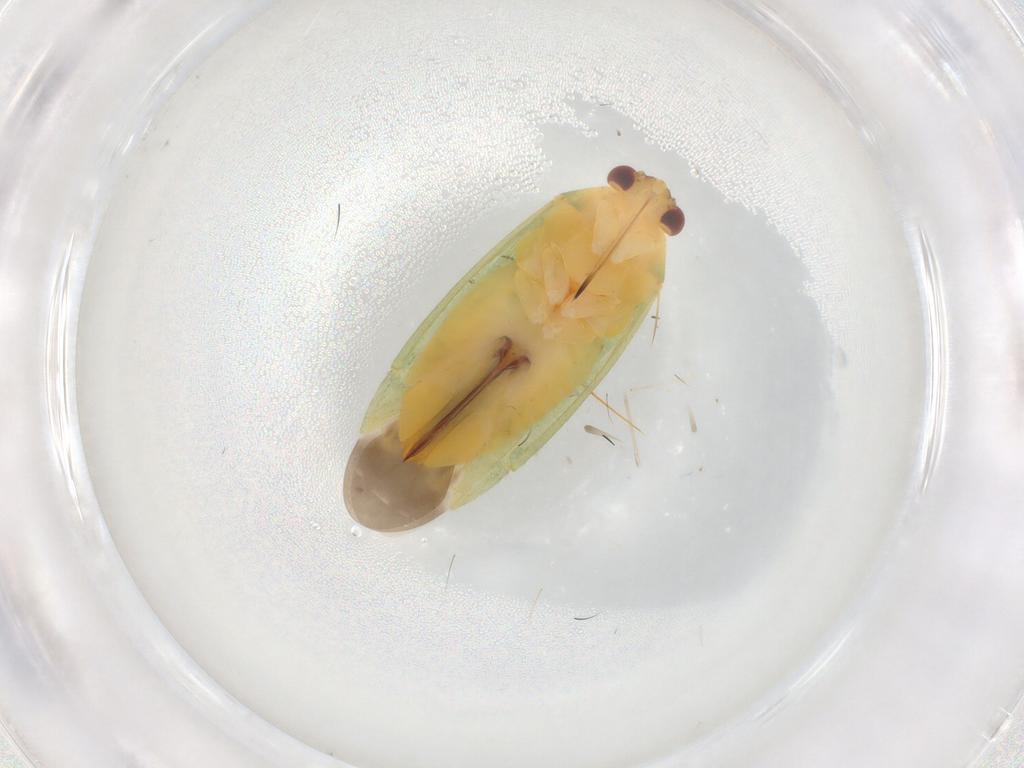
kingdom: Animalia
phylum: Arthropoda
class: Insecta
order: Hemiptera
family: Miridae
